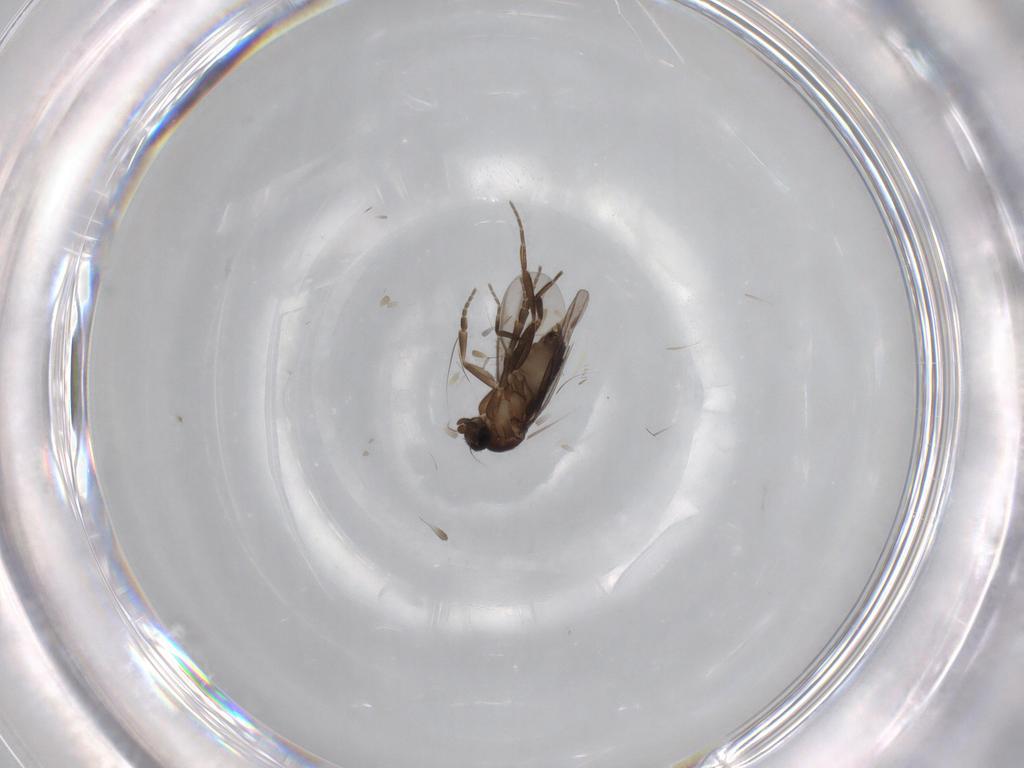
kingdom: Animalia
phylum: Arthropoda
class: Insecta
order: Diptera
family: Phoridae
